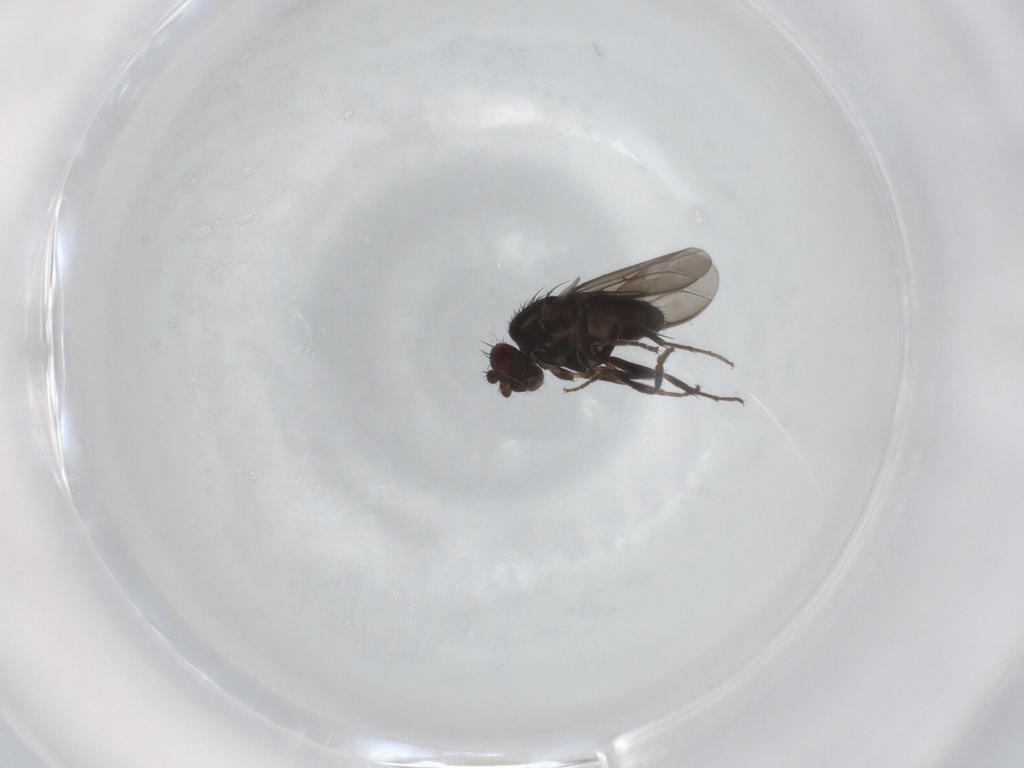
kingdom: Animalia
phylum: Arthropoda
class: Insecta
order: Diptera
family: Sphaeroceridae
